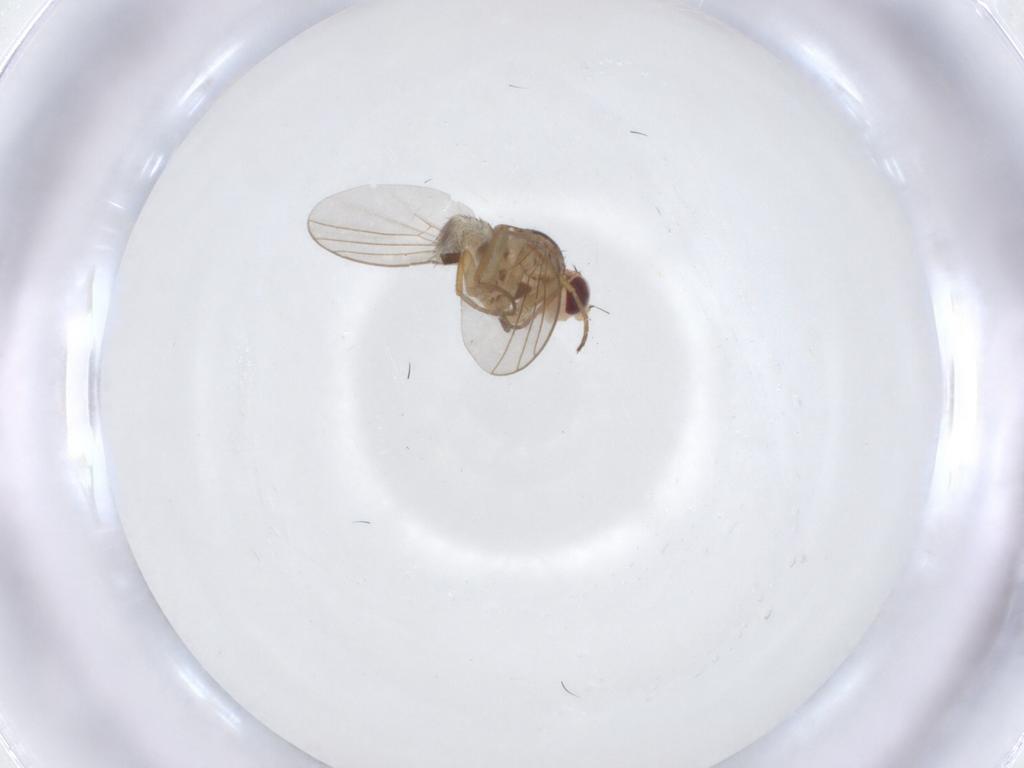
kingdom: Animalia
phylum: Arthropoda
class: Insecta
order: Diptera
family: Agromyzidae
